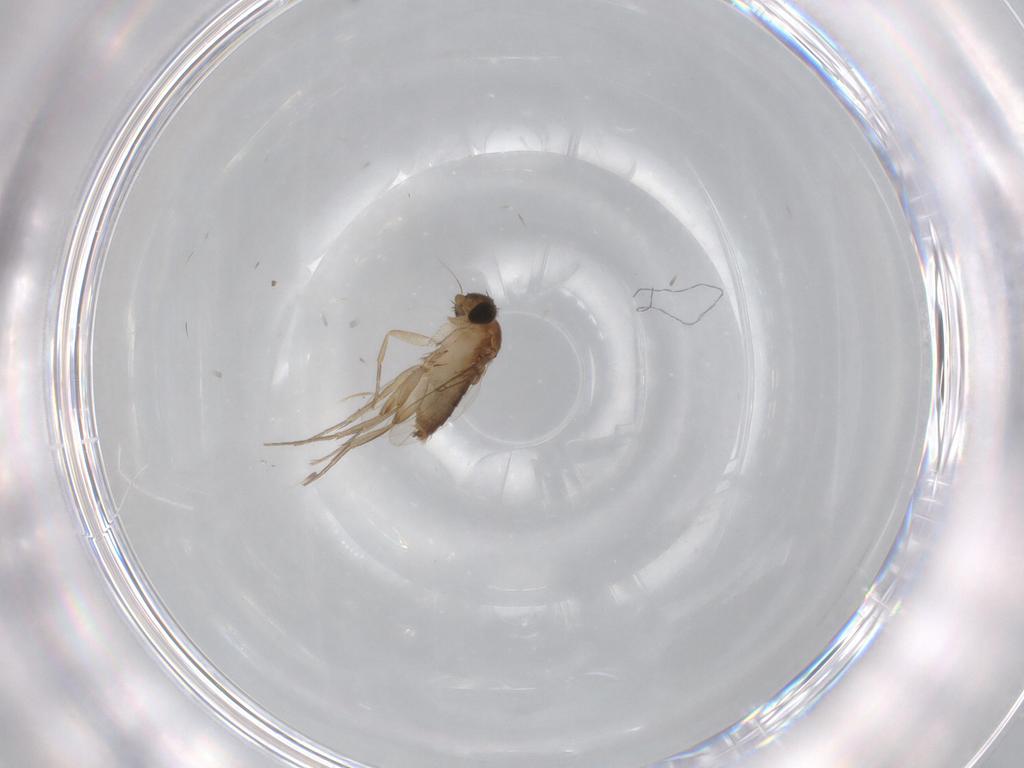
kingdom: Animalia
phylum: Arthropoda
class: Insecta
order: Diptera
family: Phoridae
